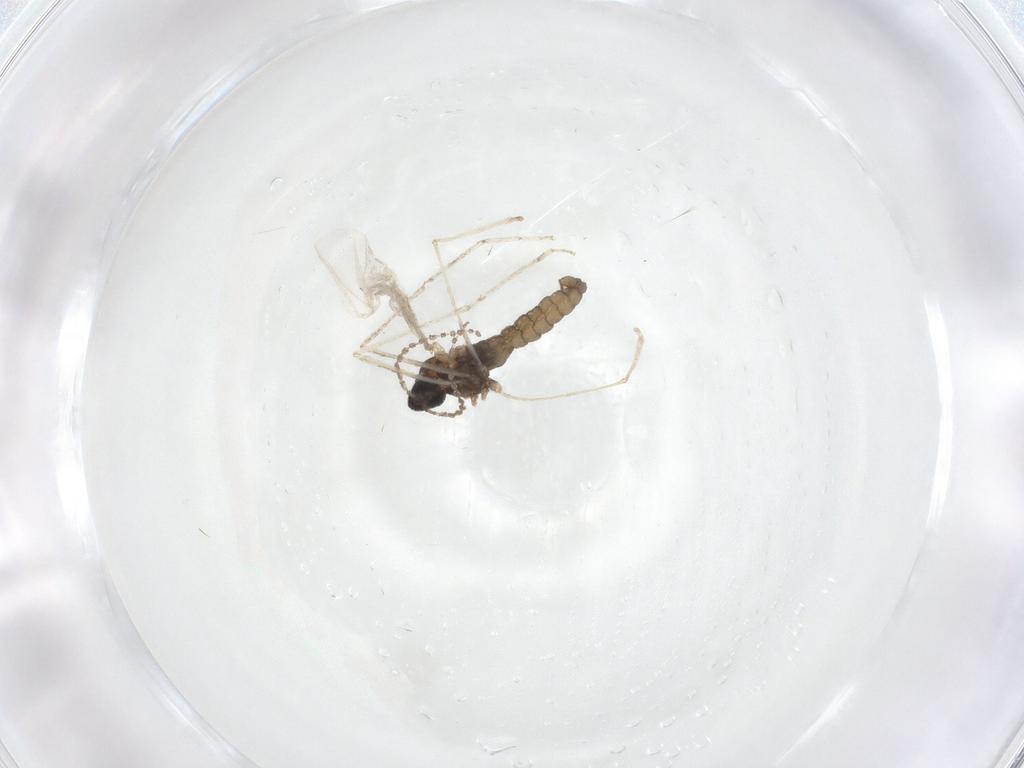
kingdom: Animalia
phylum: Arthropoda
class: Insecta
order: Diptera
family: Cecidomyiidae
